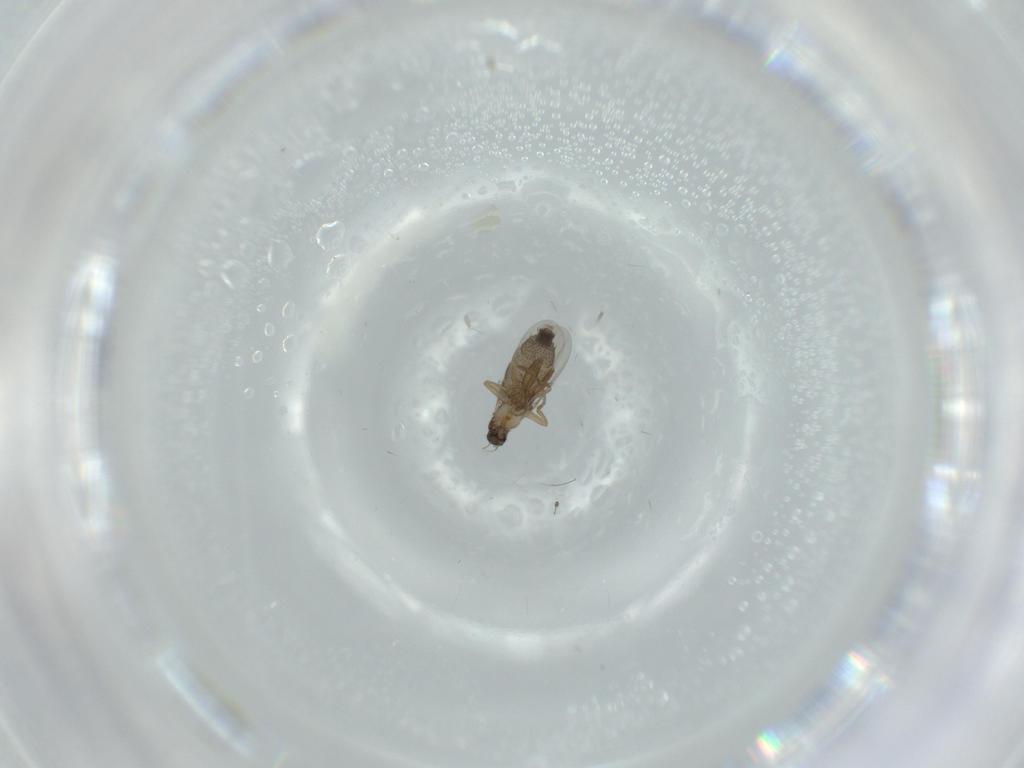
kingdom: Animalia
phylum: Arthropoda
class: Insecta
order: Diptera
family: Phoridae
